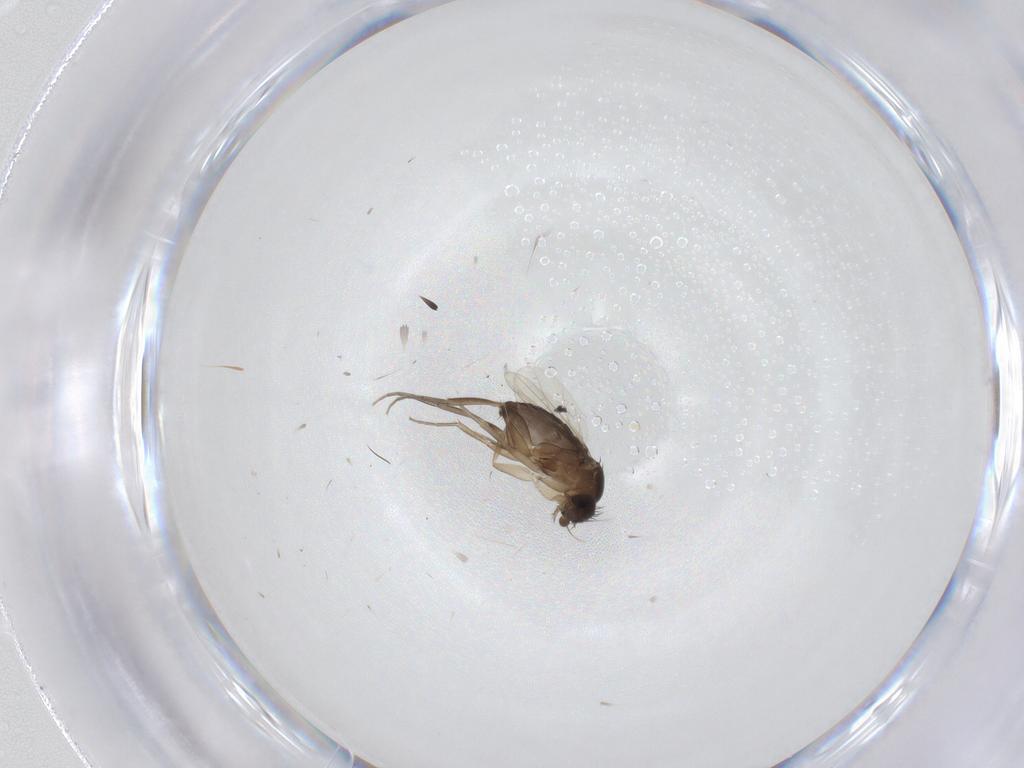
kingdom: Animalia
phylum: Arthropoda
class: Insecta
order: Diptera
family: Phoridae
